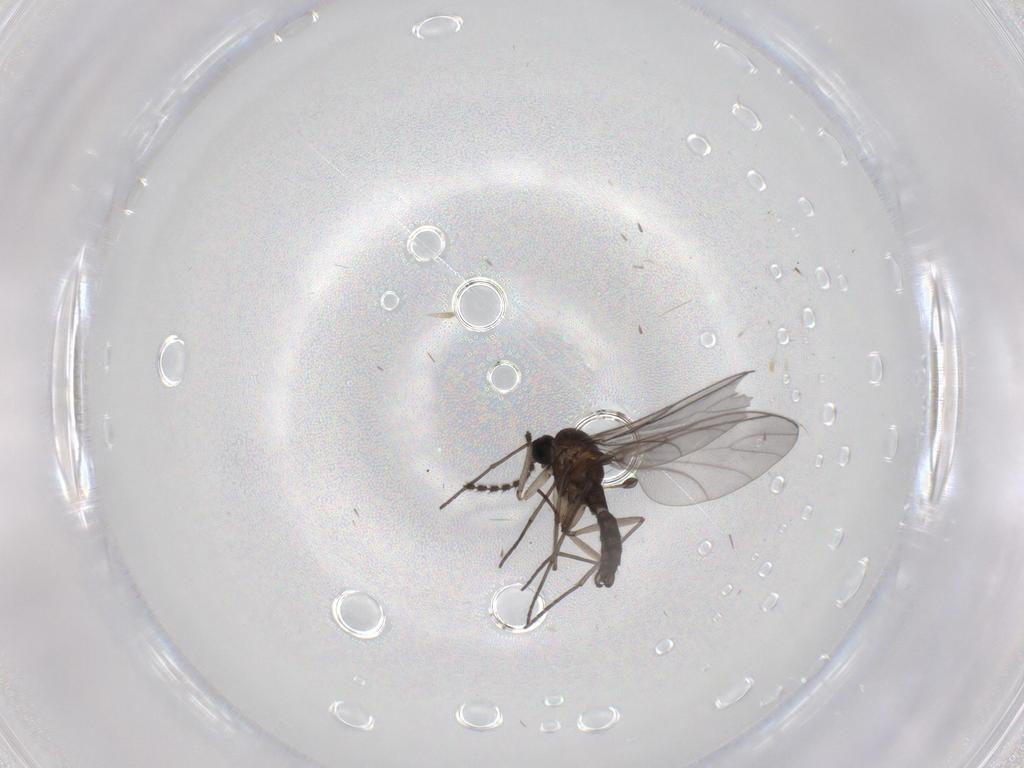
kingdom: Animalia
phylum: Arthropoda
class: Insecta
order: Diptera
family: Sciaridae
